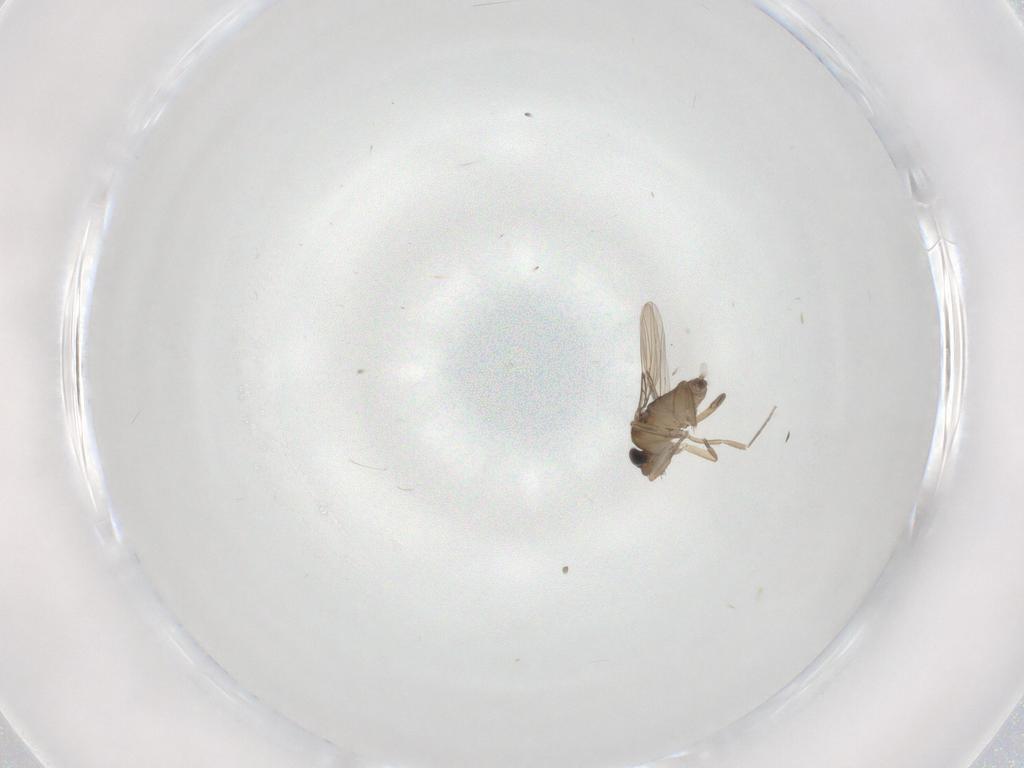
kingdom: Animalia
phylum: Arthropoda
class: Insecta
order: Diptera
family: Phoridae
